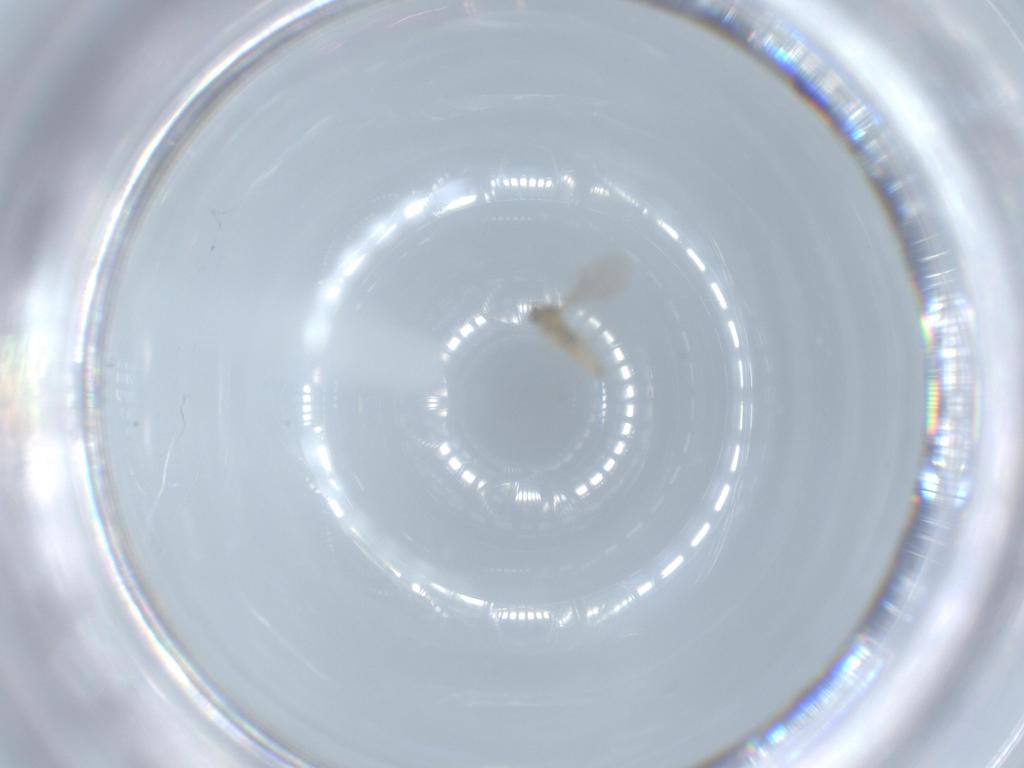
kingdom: Animalia
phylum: Arthropoda
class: Insecta
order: Diptera
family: Cecidomyiidae
